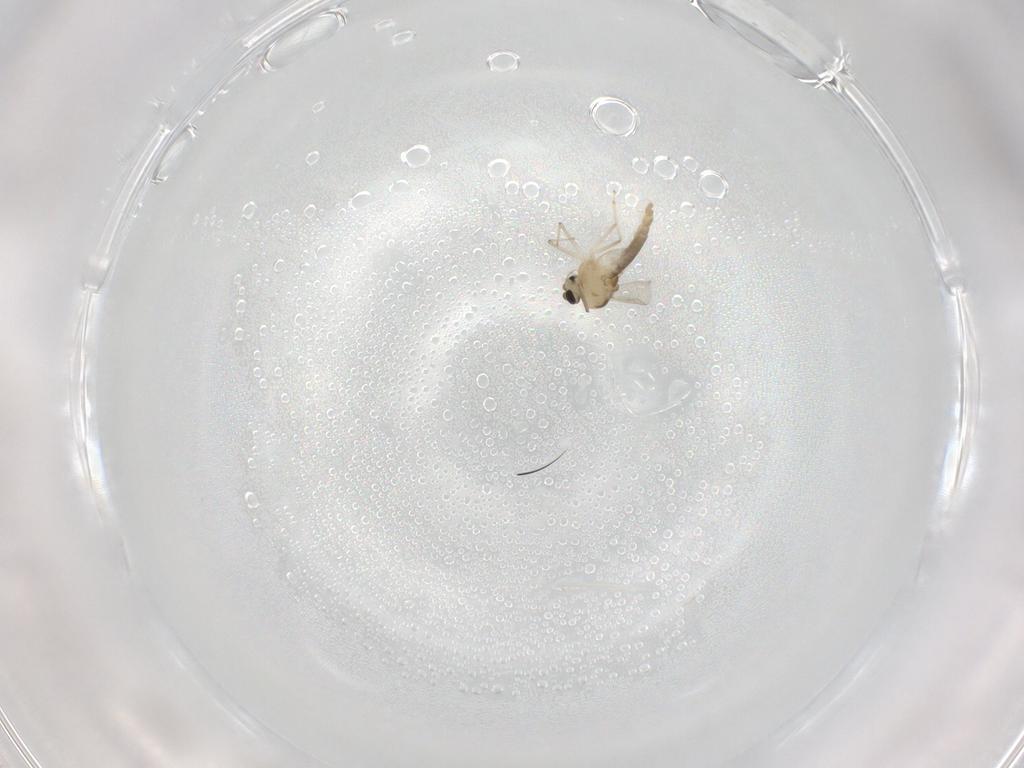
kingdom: Animalia
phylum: Arthropoda
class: Insecta
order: Diptera
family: Chironomidae
